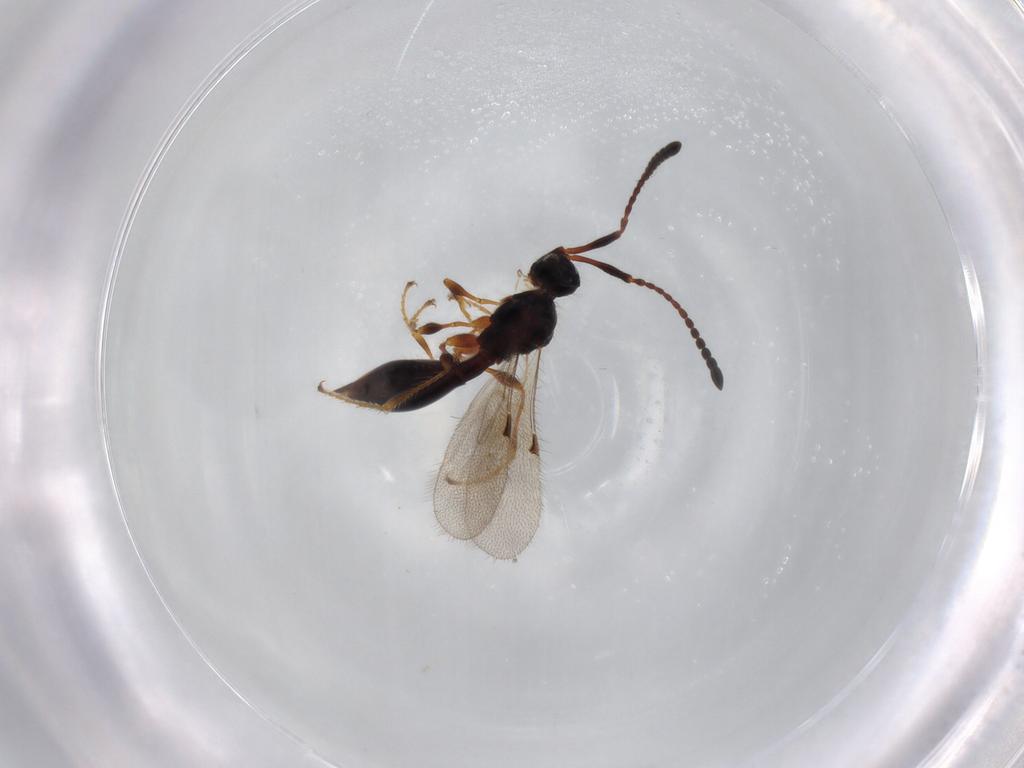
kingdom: Animalia
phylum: Arthropoda
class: Insecta
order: Hymenoptera
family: Diapriidae
